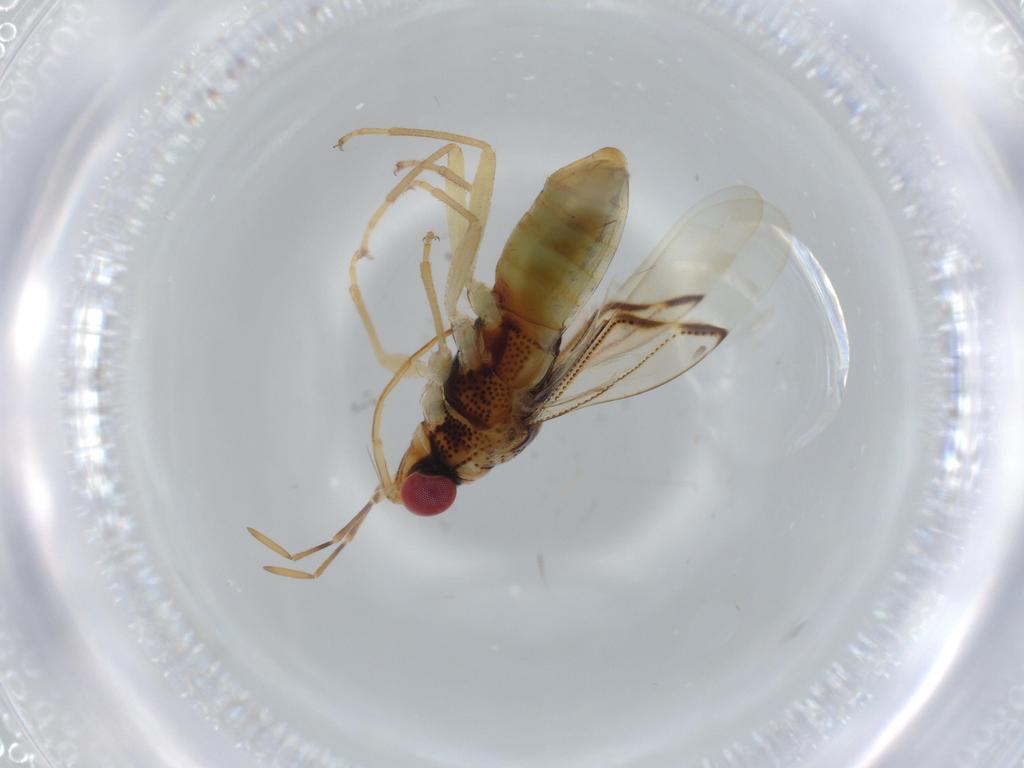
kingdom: Animalia
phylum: Arthropoda
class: Insecta
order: Hemiptera
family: Geocoridae
